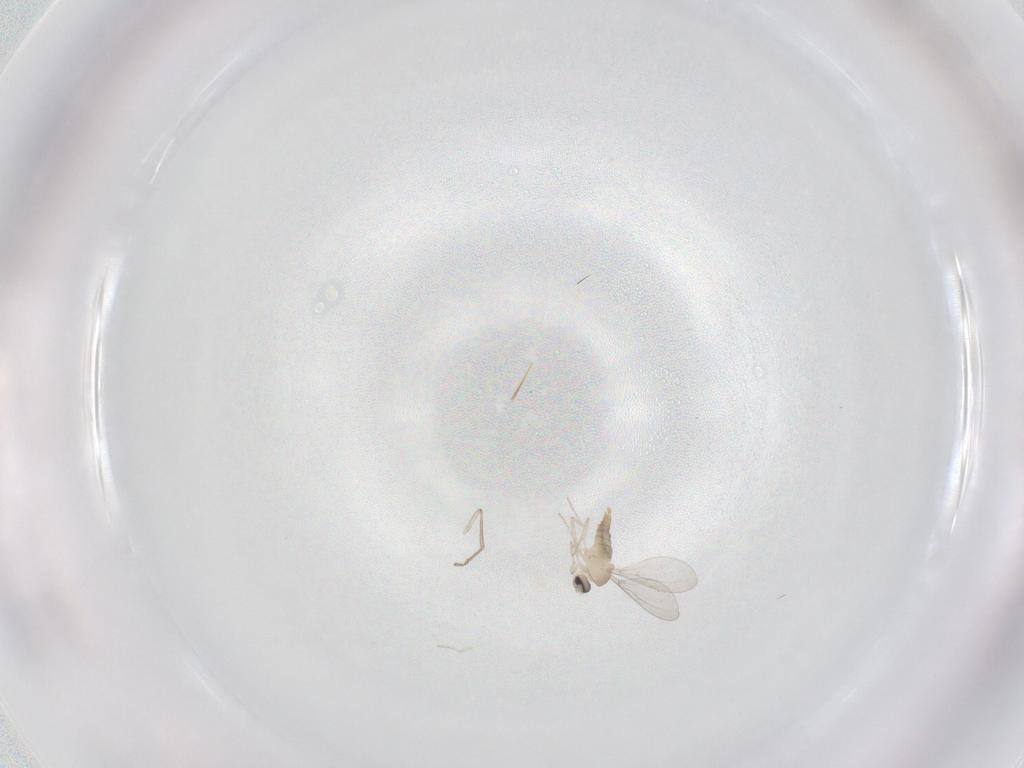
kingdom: Animalia
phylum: Arthropoda
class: Insecta
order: Diptera
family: Cecidomyiidae
